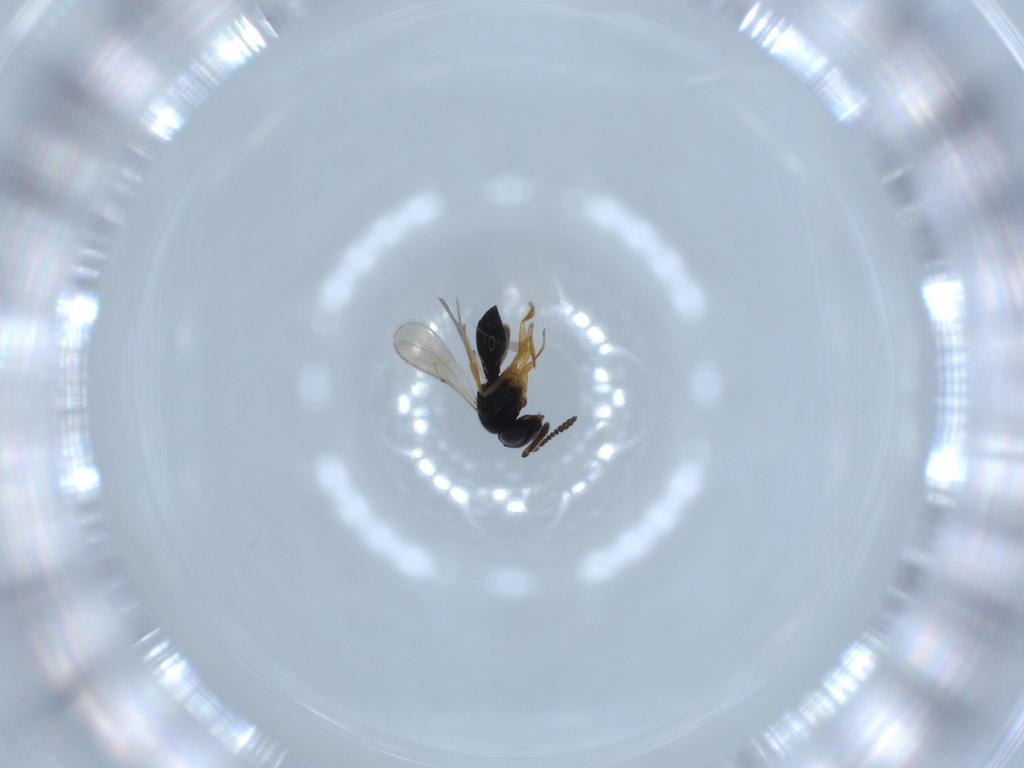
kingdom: Animalia
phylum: Arthropoda
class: Insecta
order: Hymenoptera
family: Scelionidae
